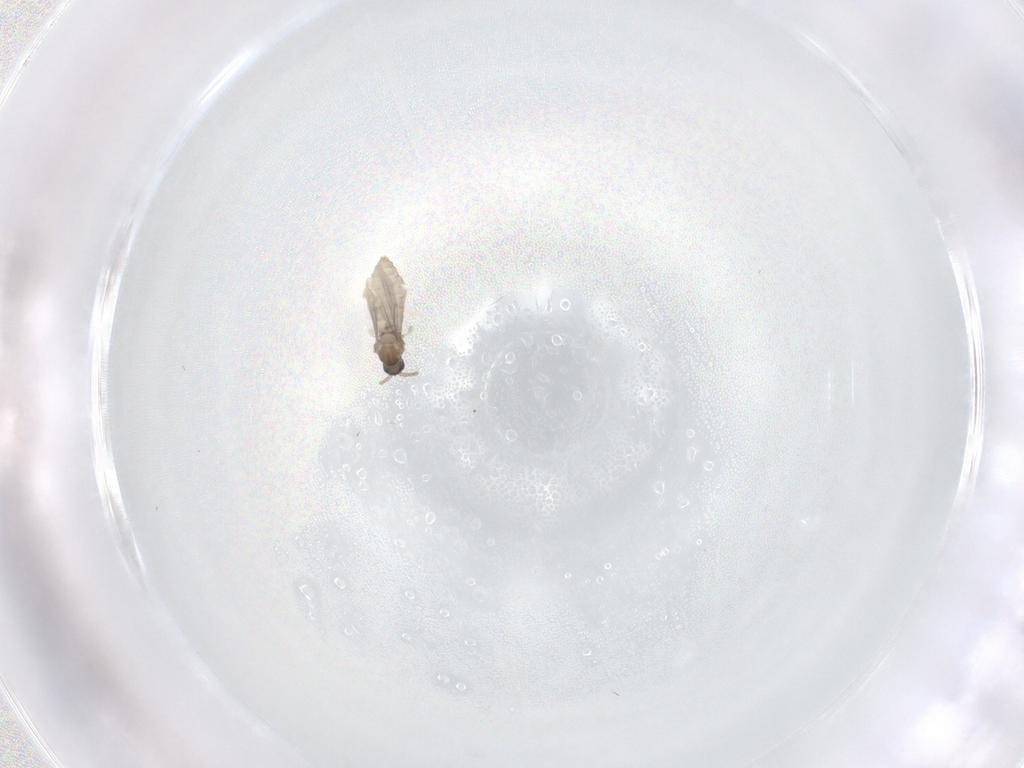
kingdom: Animalia
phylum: Arthropoda
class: Insecta
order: Diptera
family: Cecidomyiidae
